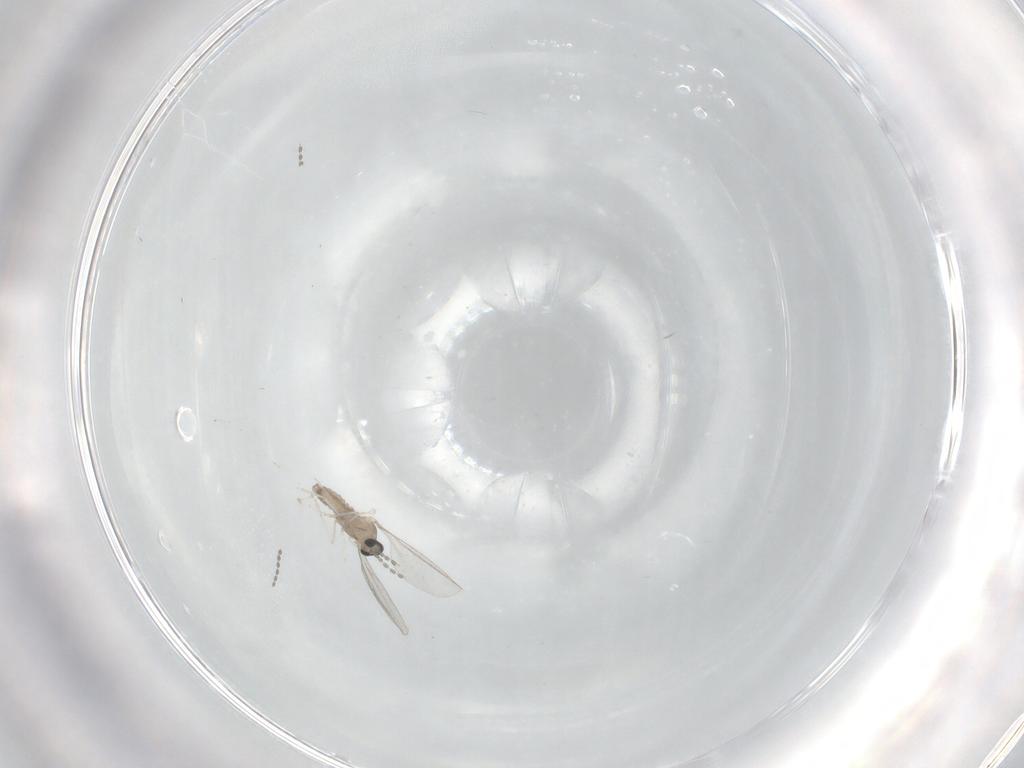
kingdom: Animalia
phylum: Arthropoda
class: Insecta
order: Diptera
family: Cecidomyiidae
